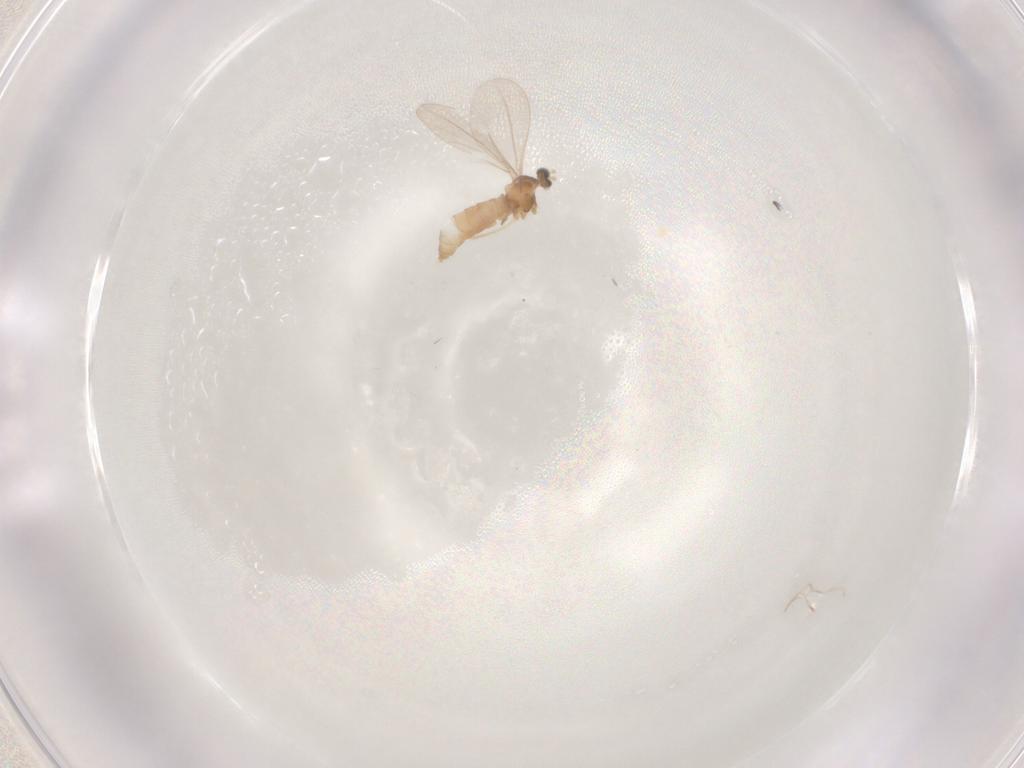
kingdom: Animalia
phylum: Arthropoda
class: Insecta
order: Diptera
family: Cecidomyiidae
